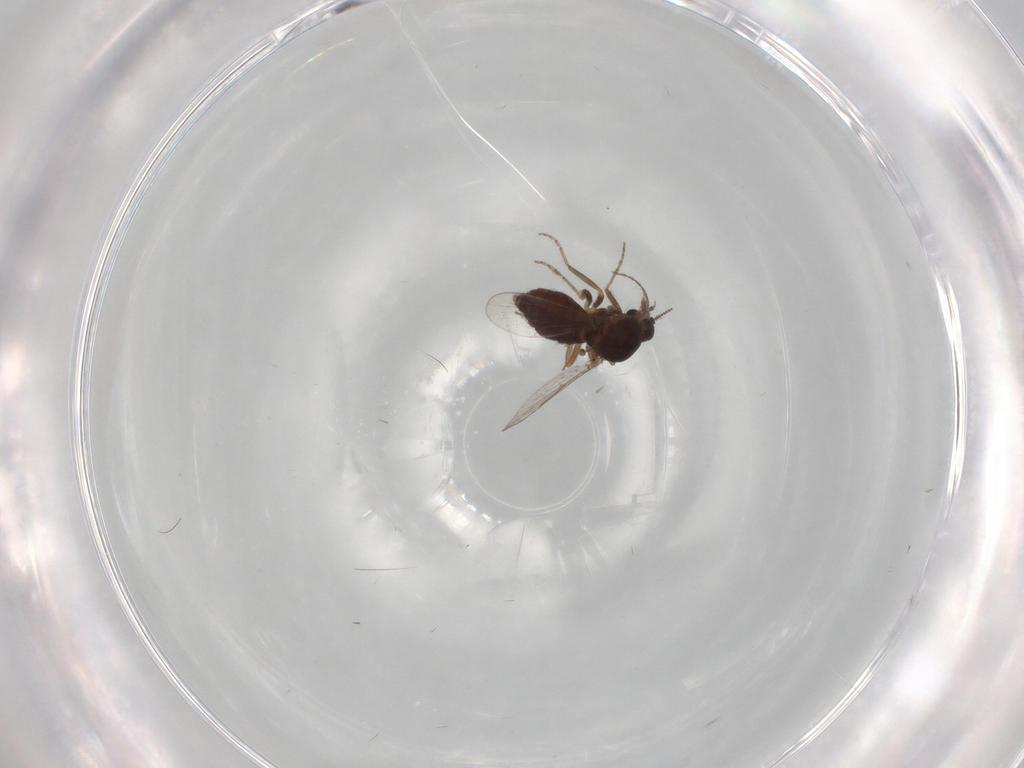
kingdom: Animalia
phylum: Arthropoda
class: Insecta
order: Diptera
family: Ceratopogonidae
